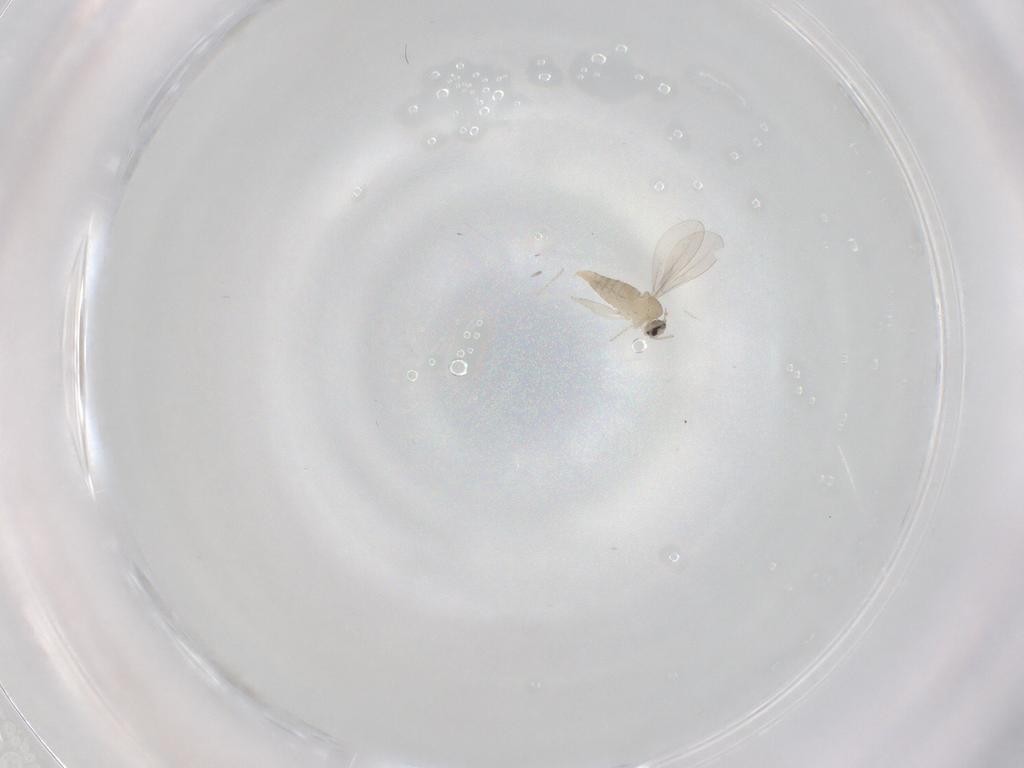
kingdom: Animalia
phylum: Arthropoda
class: Insecta
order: Diptera
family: Cecidomyiidae
